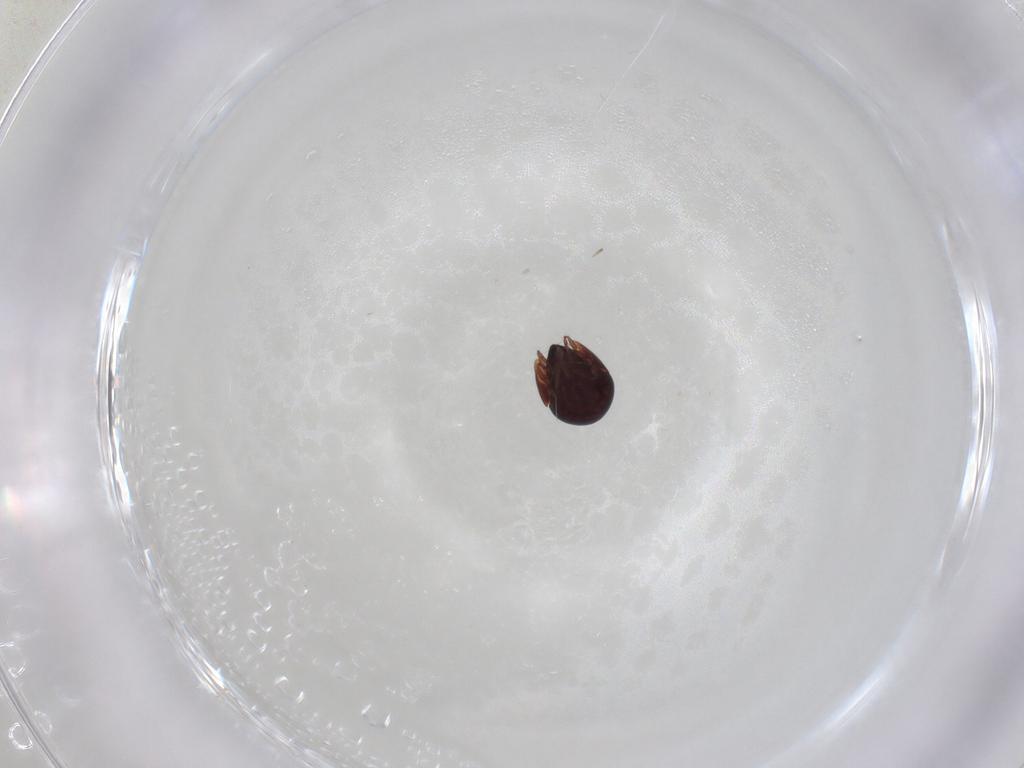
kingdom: Animalia
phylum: Arthropoda
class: Arachnida
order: Sarcoptiformes
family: Galumnidae
